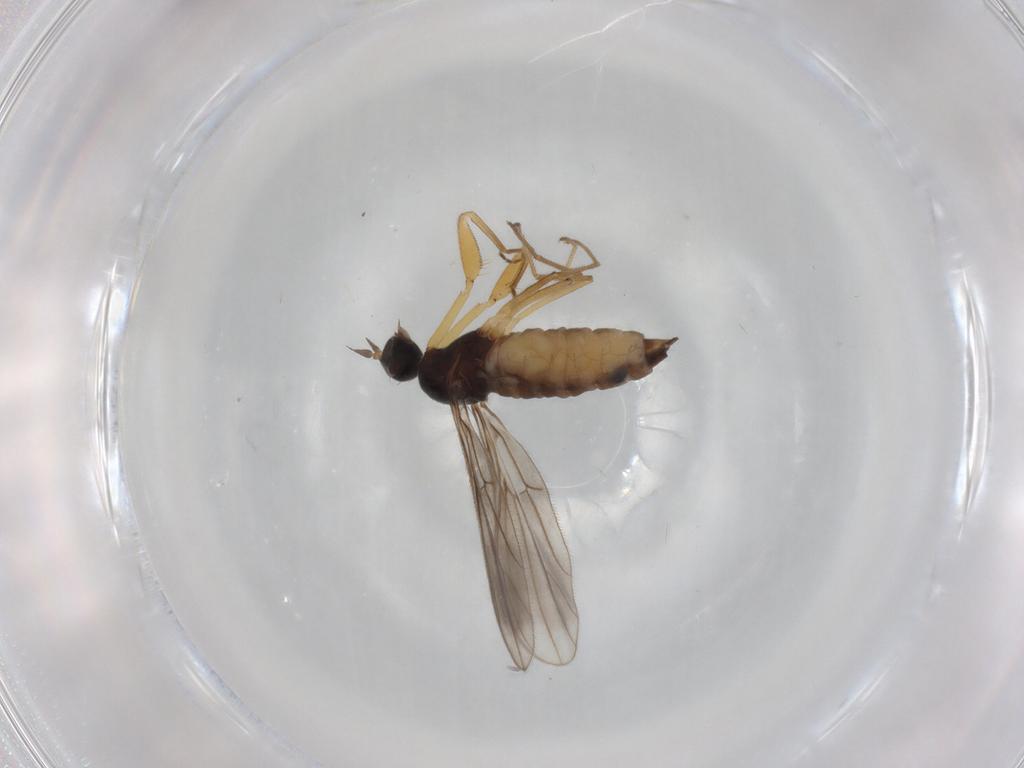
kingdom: Animalia
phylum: Arthropoda
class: Insecta
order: Diptera
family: Empididae
